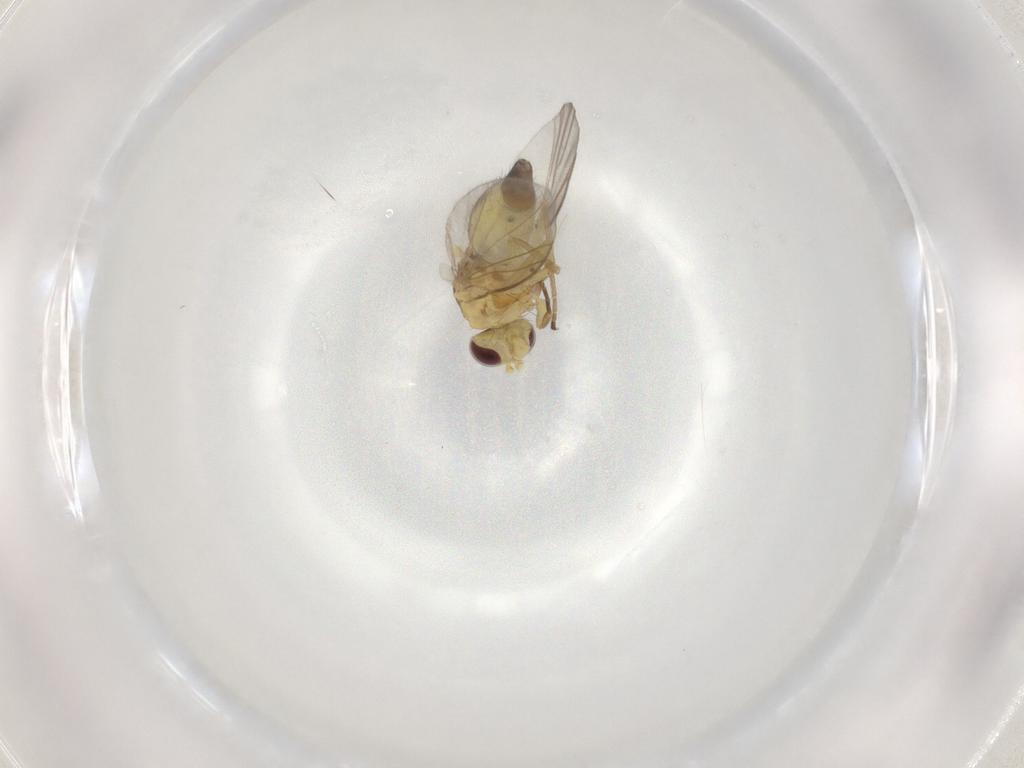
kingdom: Animalia
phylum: Arthropoda
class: Insecta
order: Diptera
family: Agromyzidae
